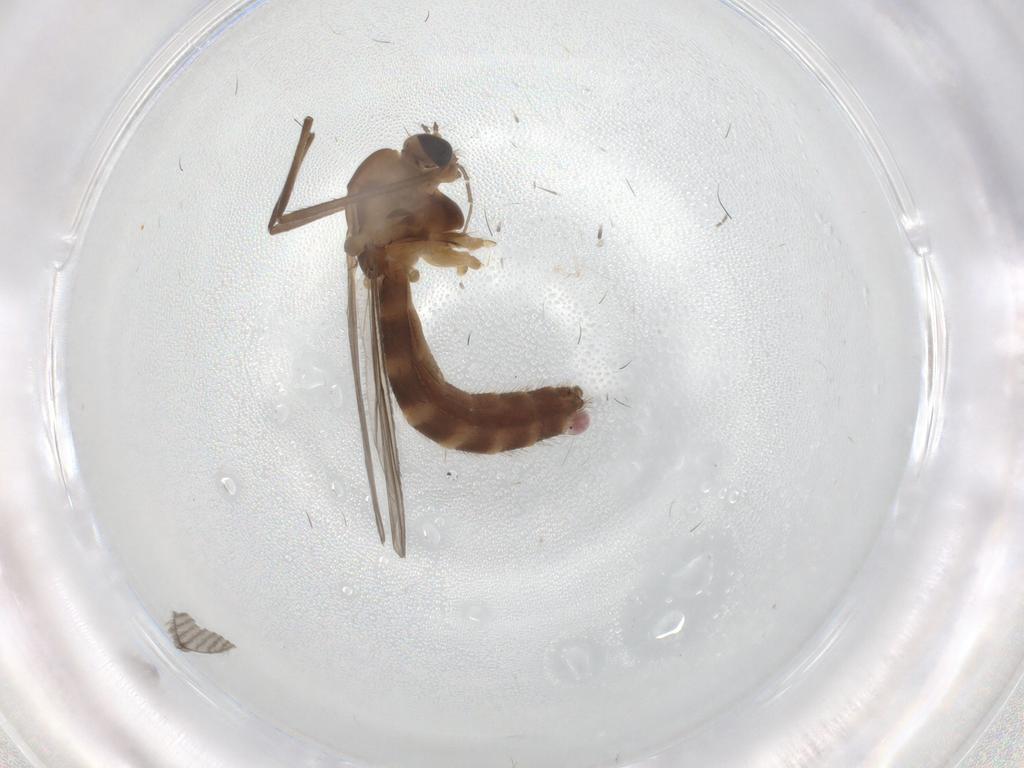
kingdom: Animalia
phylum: Arthropoda
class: Insecta
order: Diptera
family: Chironomidae
